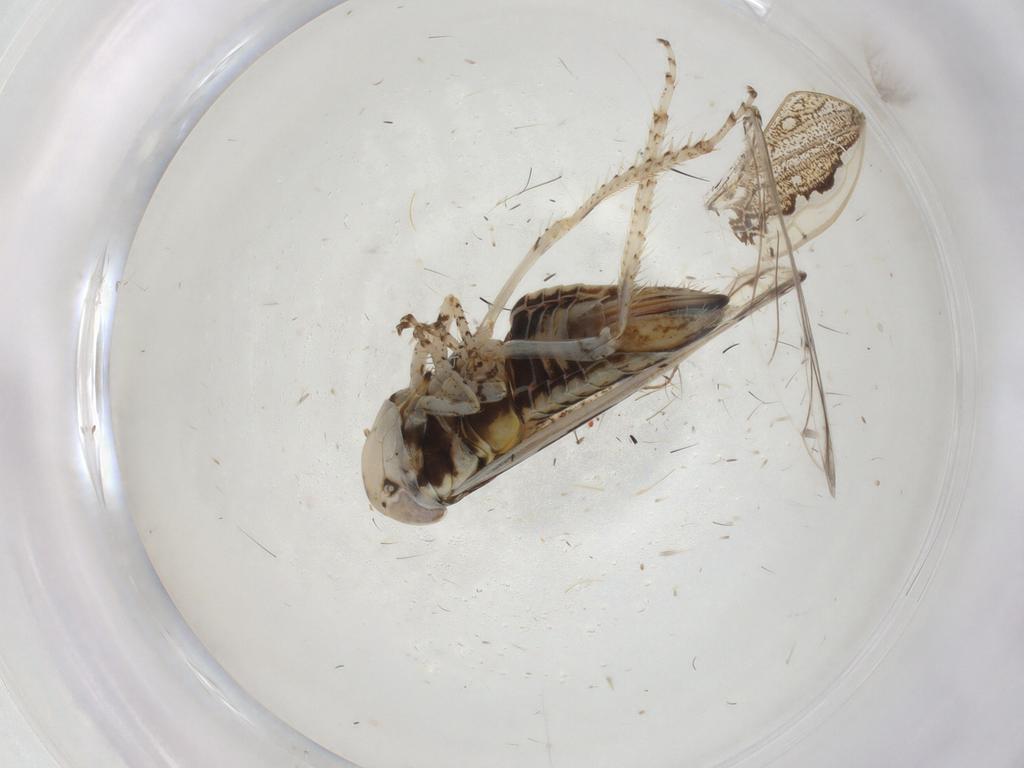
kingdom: Animalia
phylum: Arthropoda
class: Insecta
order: Hemiptera
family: Cicadellidae
